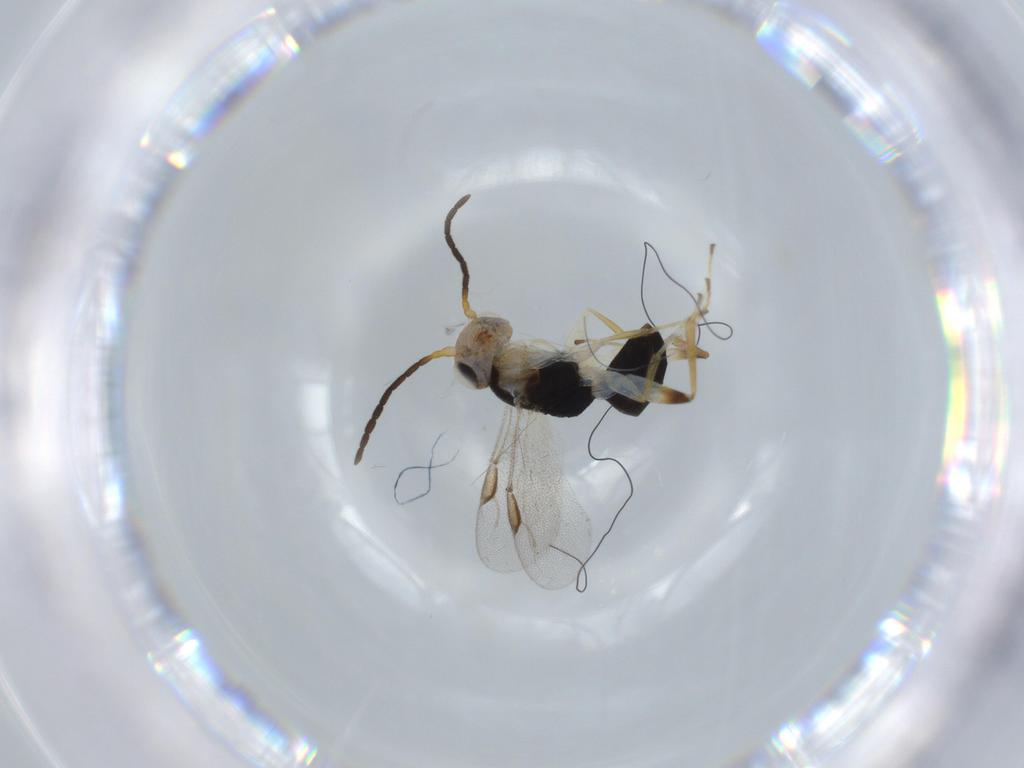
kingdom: Animalia
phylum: Arthropoda
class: Insecta
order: Hymenoptera
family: Dryinidae
